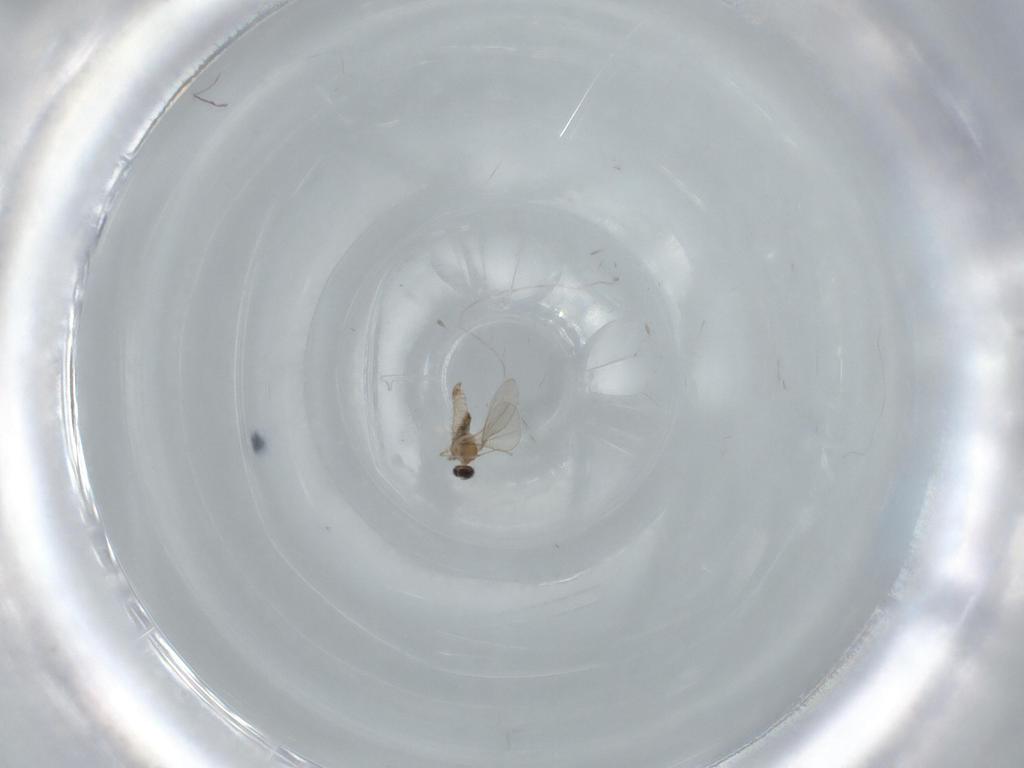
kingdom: Animalia
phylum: Arthropoda
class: Insecta
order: Diptera
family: Cecidomyiidae
